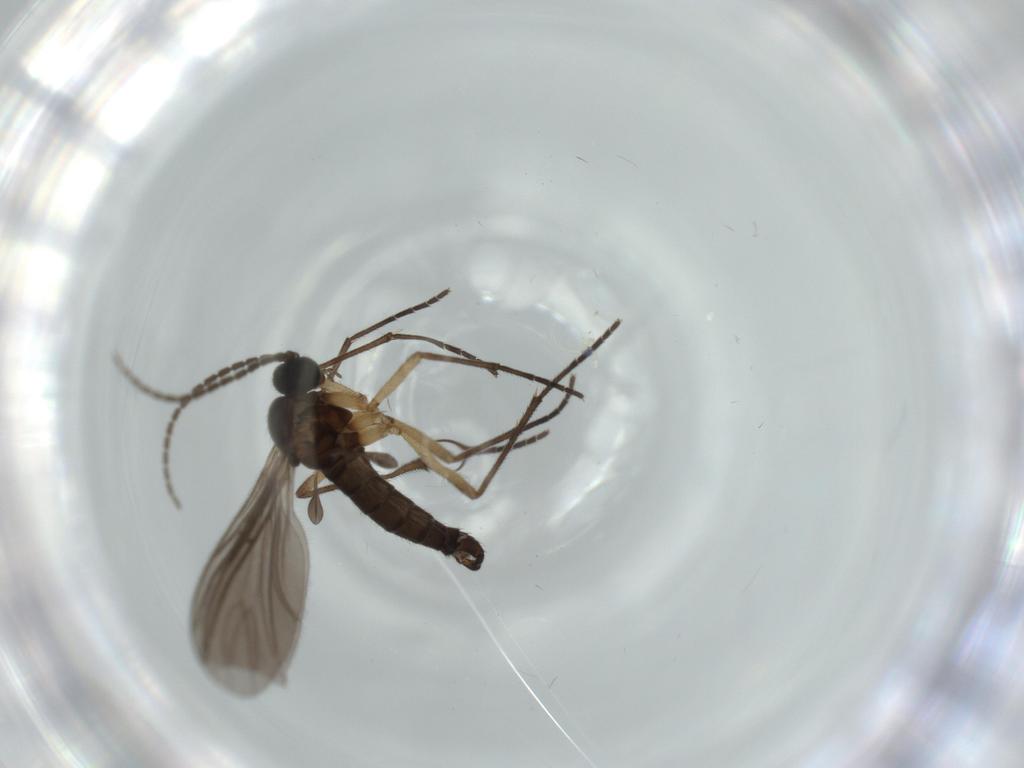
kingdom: Animalia
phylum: Arthropoda
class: Insecta
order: Diptera
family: Sciaridae
